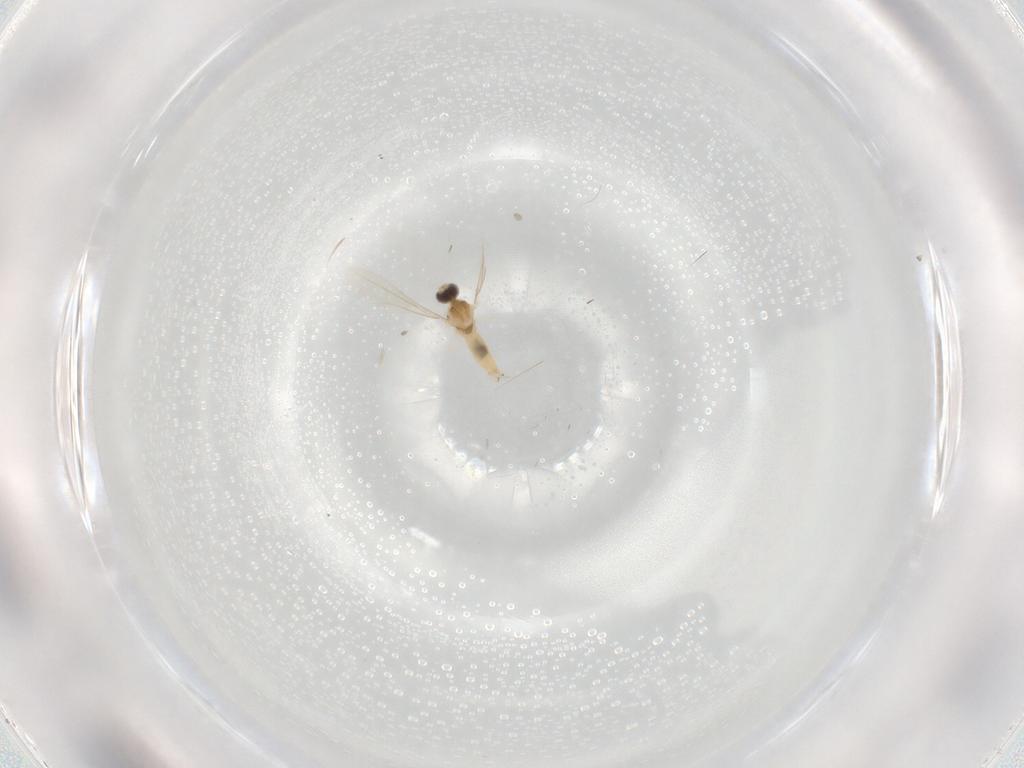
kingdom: Animalia
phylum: Arthropoda
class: Insecta
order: Diptera
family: Cecidomyiidae
